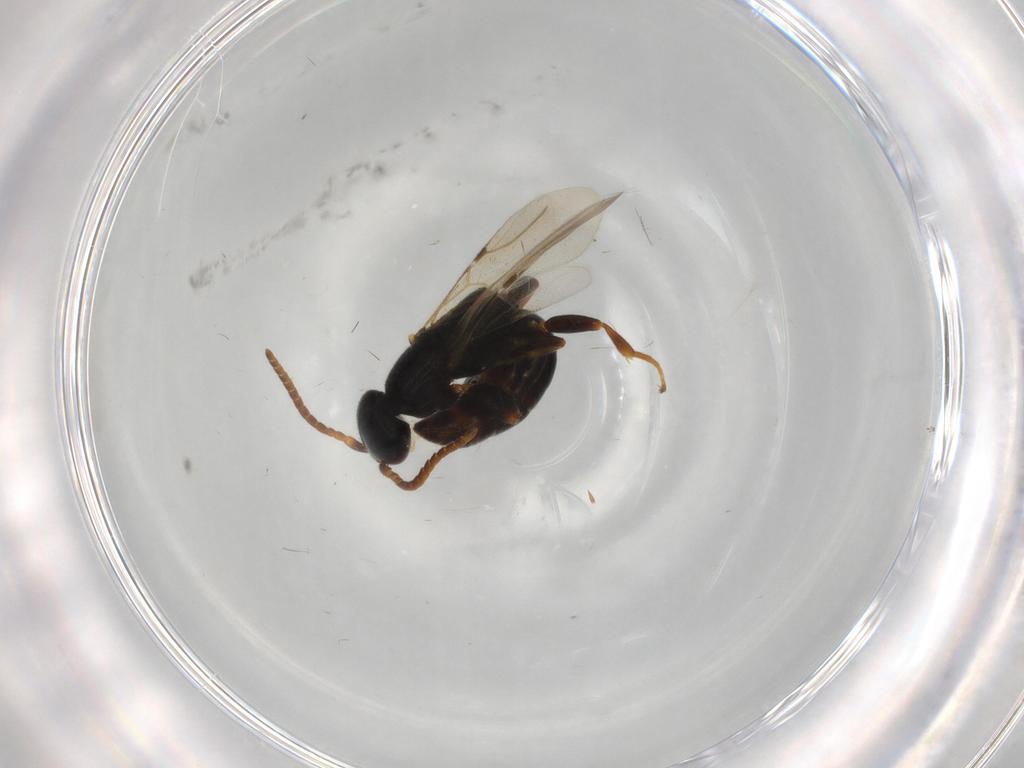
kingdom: Animalia
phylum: Arthropoda
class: Insecta
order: Hymenoptera
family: Bethylidae
